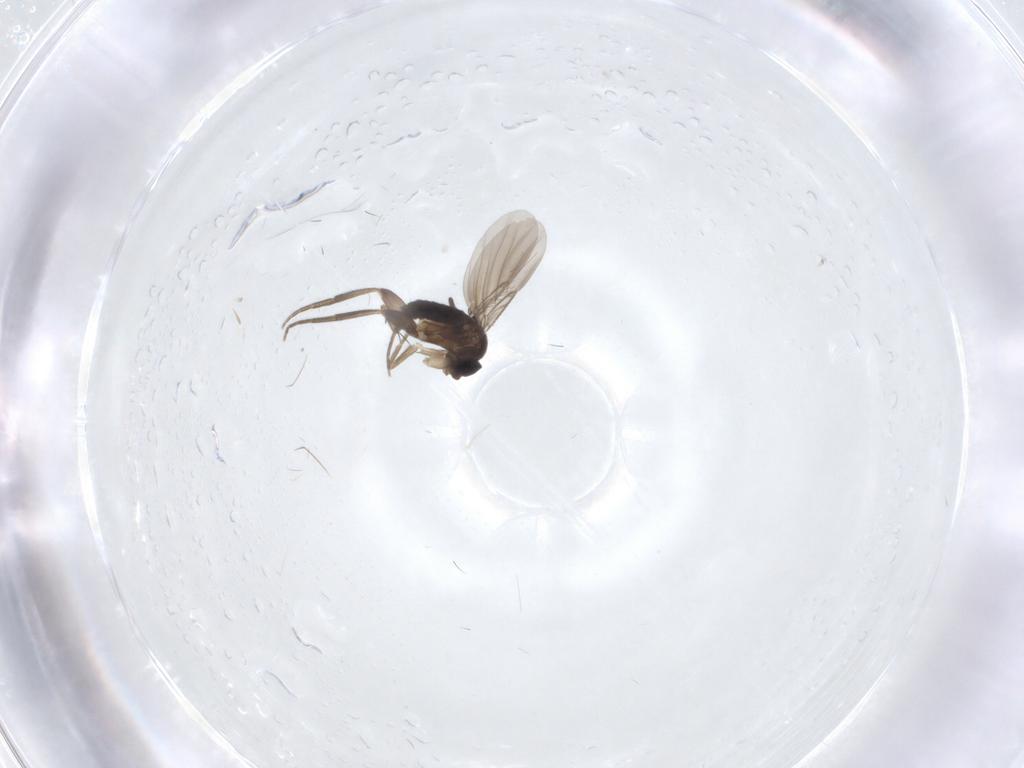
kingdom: Animalia
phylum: Arthropoda
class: Insecta
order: Diptera
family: Phoridae
